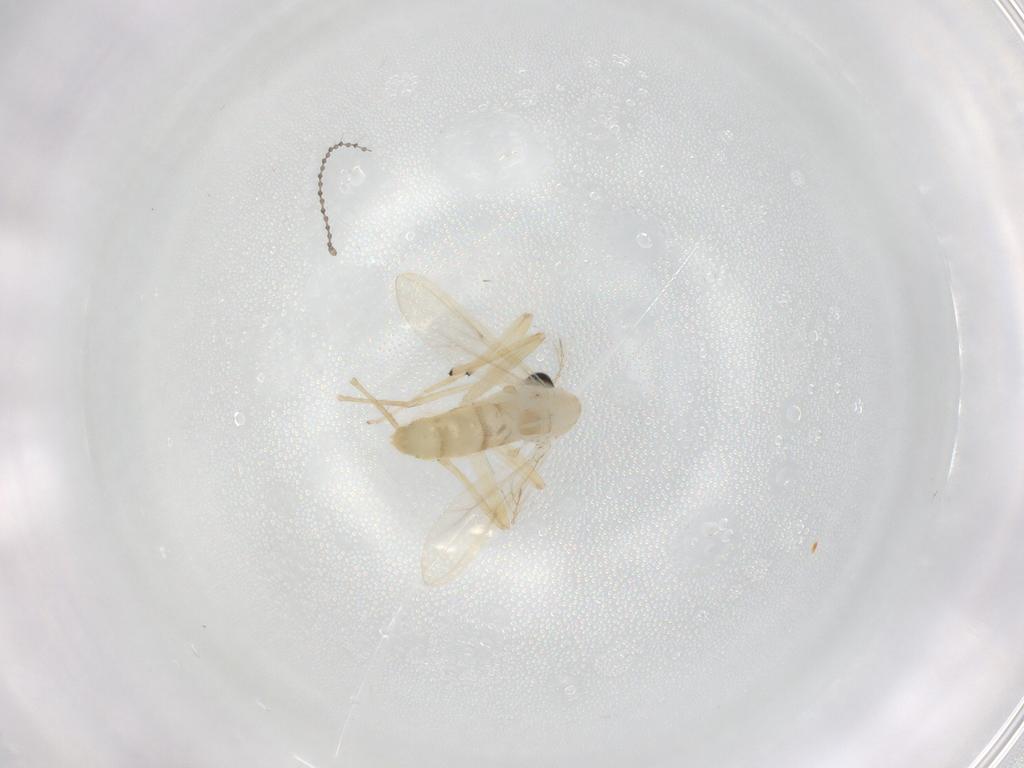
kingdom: Animalia
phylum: Arthropoda
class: Insecta
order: Diptera
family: Chironomidae
